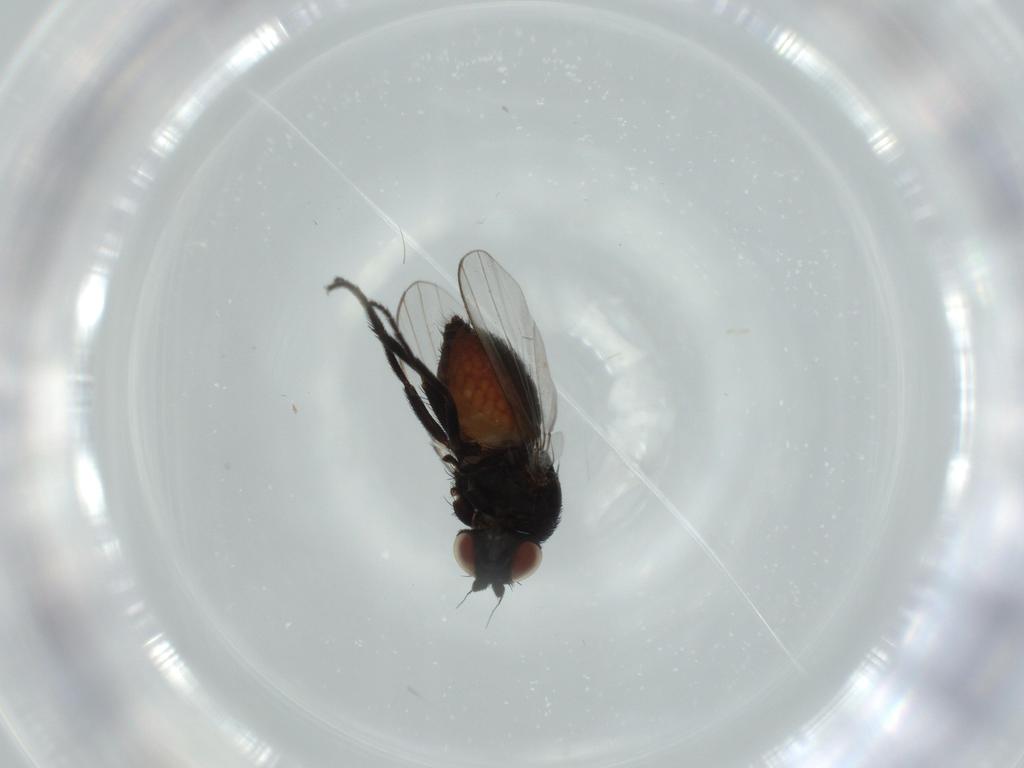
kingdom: Animalia
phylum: Arthropoda
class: Insecta
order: Diptera
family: Milichiidae
